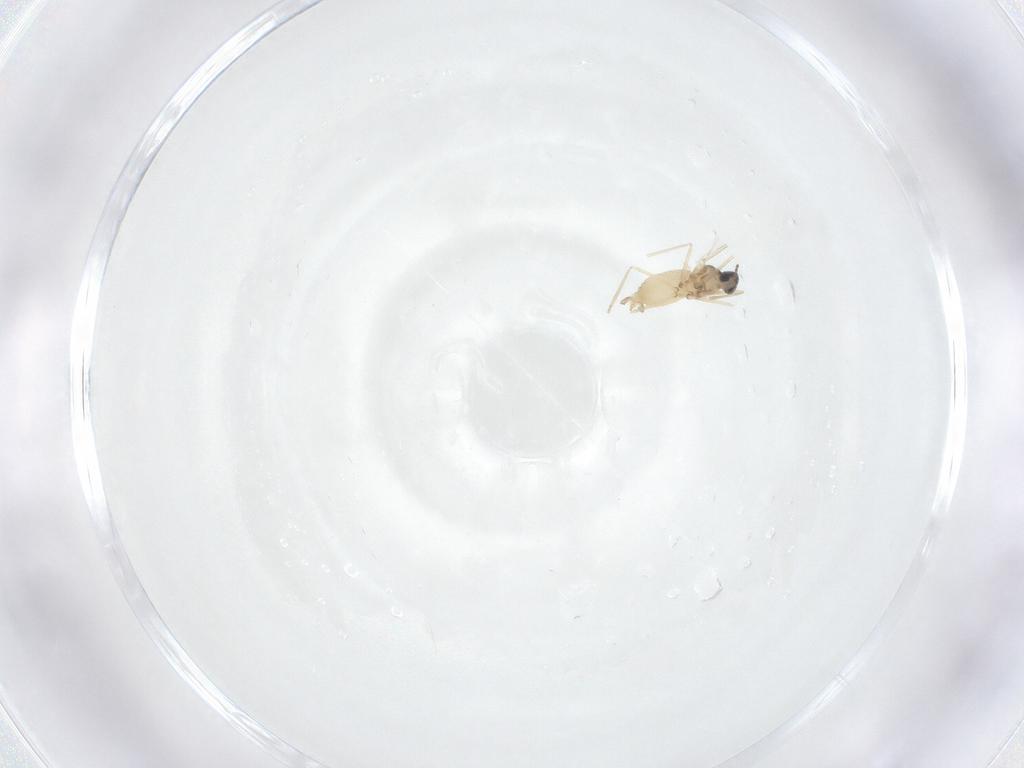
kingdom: Animalia
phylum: Arthropoda
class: Insecta
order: Diptera
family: Cecidomyiidae
